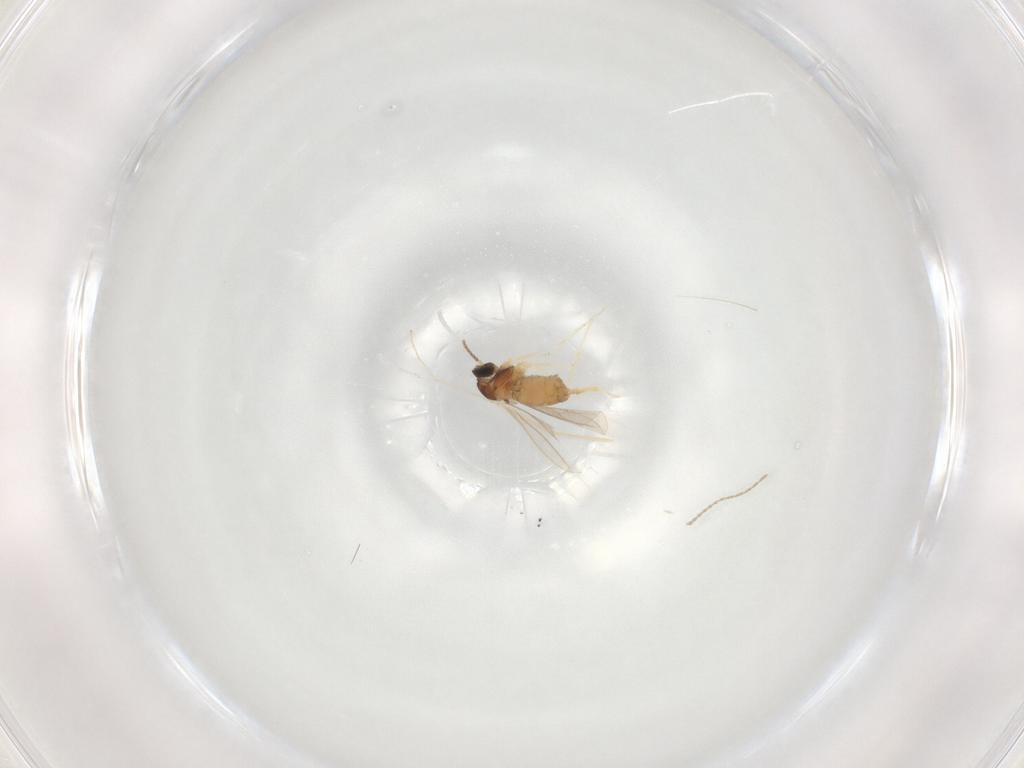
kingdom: Animalia
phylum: Arthropoda
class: Insecta
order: Diptera
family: Cecidomyiidae
